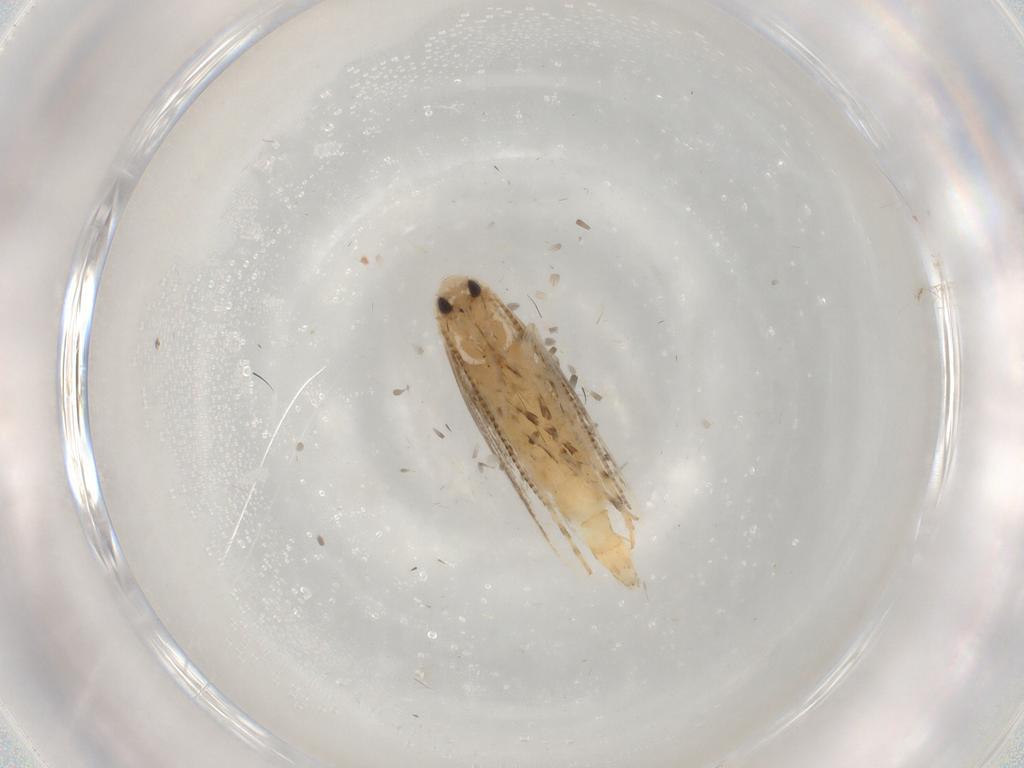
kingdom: Animalia
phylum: Arthropoda
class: Insecta
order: Lepidoptera
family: Gracillariidae
